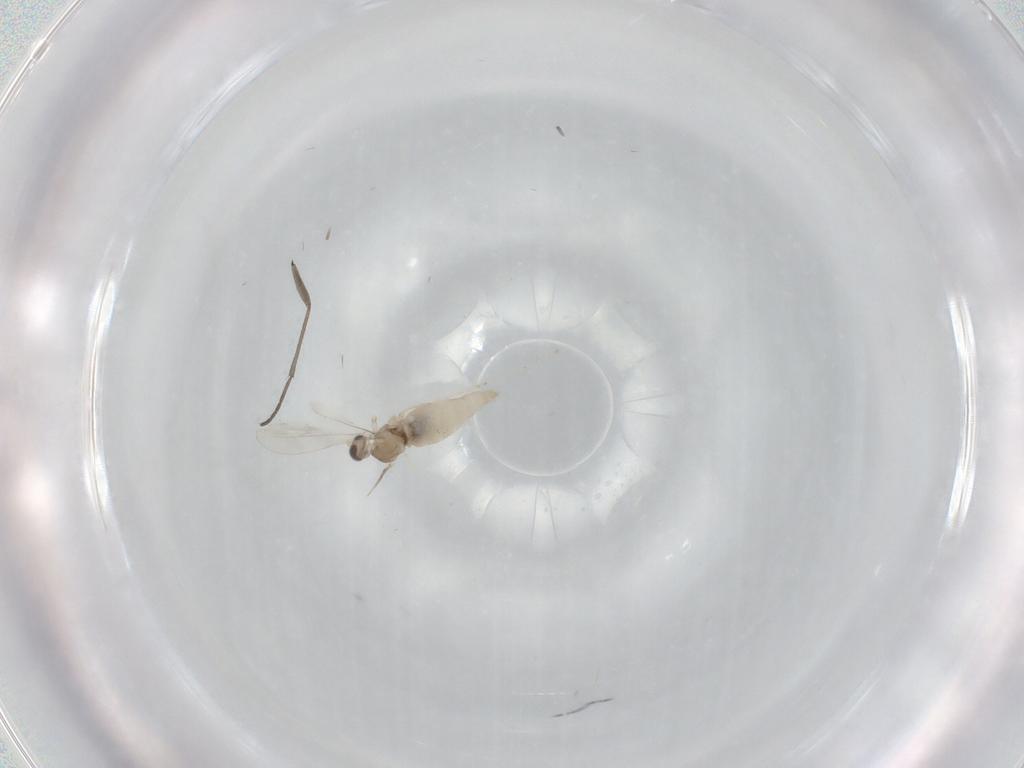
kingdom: Animalia
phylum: Arthropoda
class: Insecta
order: Diptera
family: Cecidomyiidae
